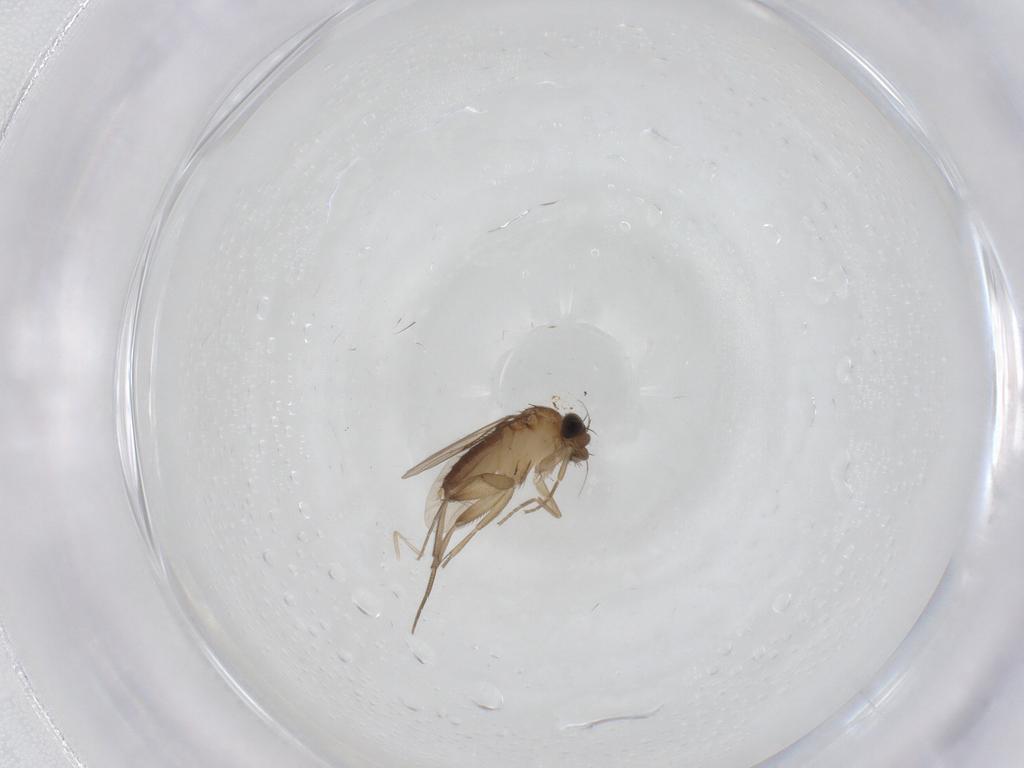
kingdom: Animalia
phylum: Arthropoda
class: Insecta
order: Diptera
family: Phoridae
